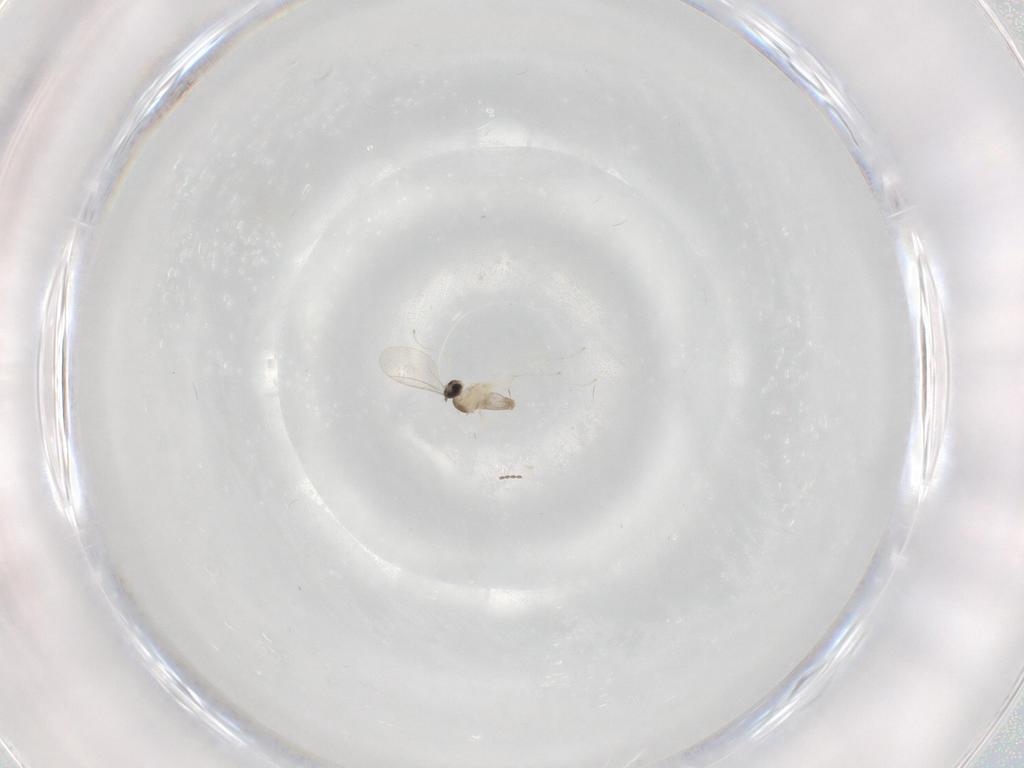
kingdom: Animalia
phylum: Arthropoda
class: Insecta
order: Diptera
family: Cecidomyiidae
